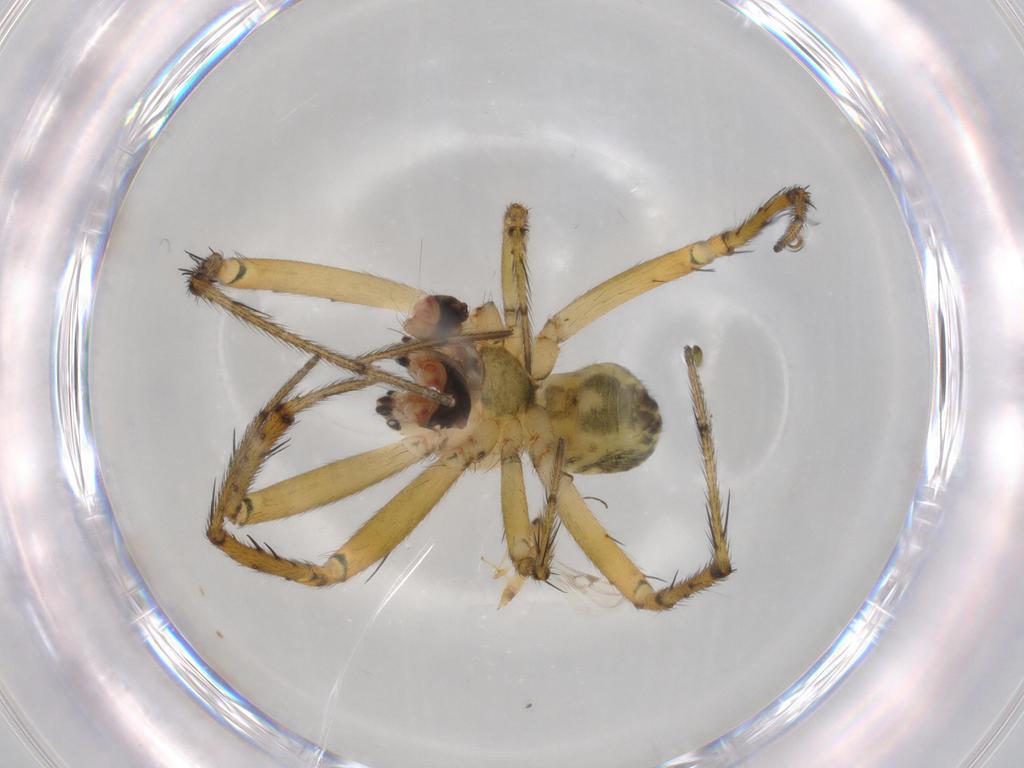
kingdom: Animalia
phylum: Arthropoda
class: Arachnida
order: Araneae
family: Araneidae
